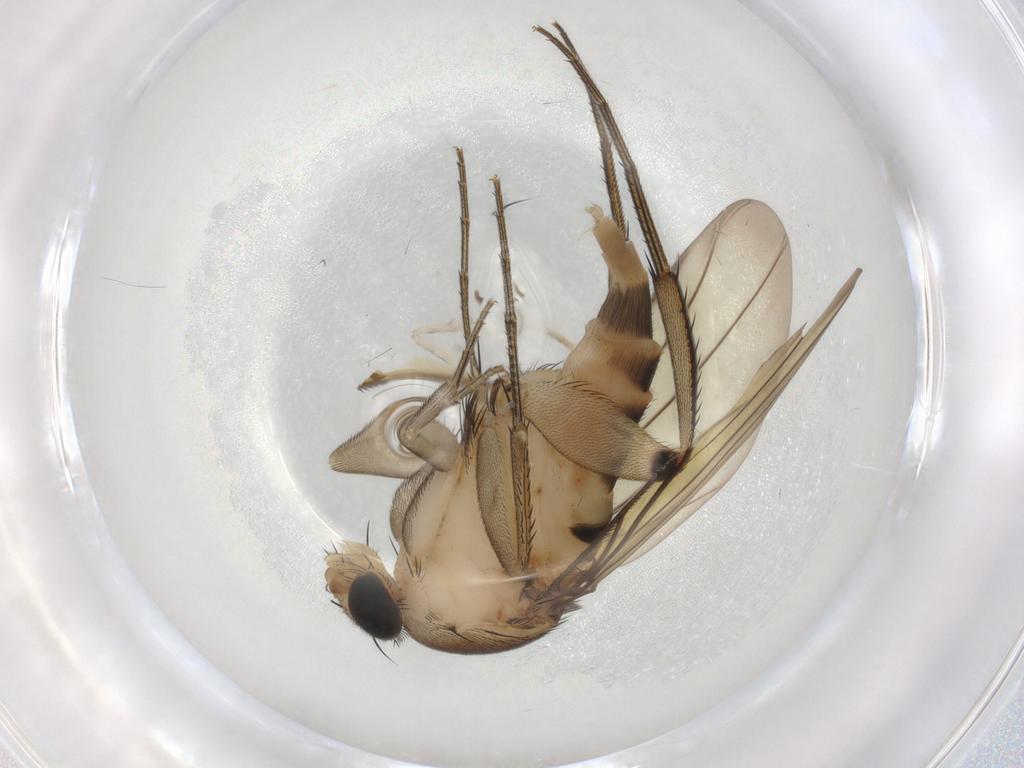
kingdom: Animalia
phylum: Arthropoda
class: Insecta
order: Diptera
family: Chironomidae
